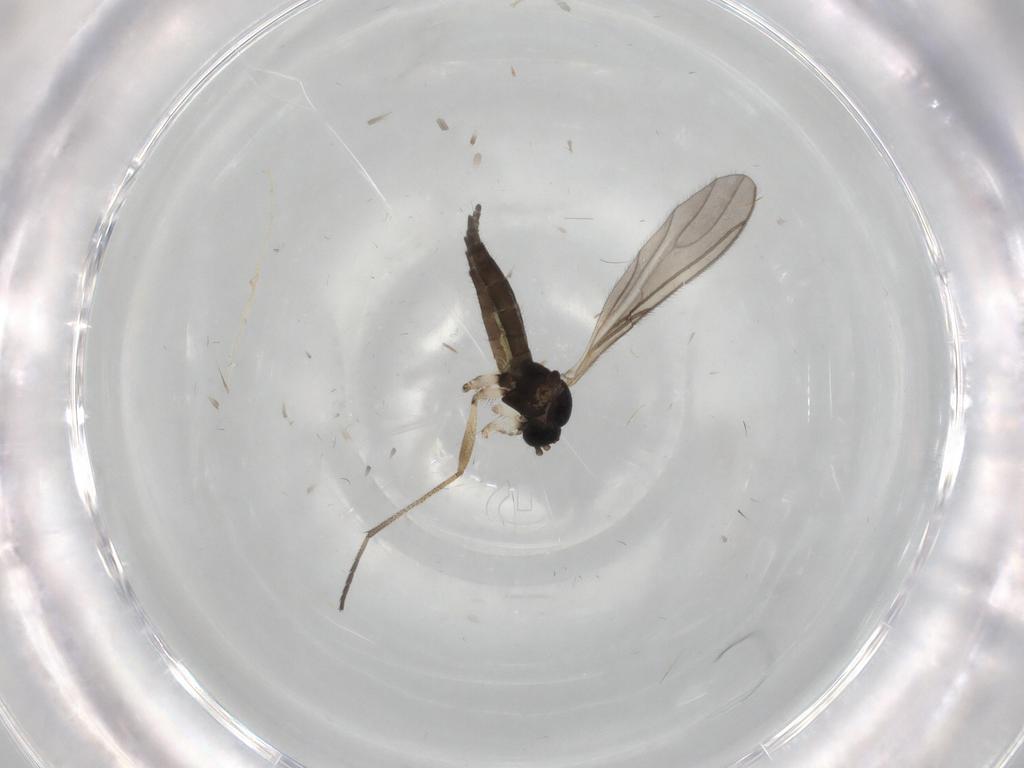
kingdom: Animalia
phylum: Arthropoda
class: Insecta
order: Diptera
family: Sciaridae
